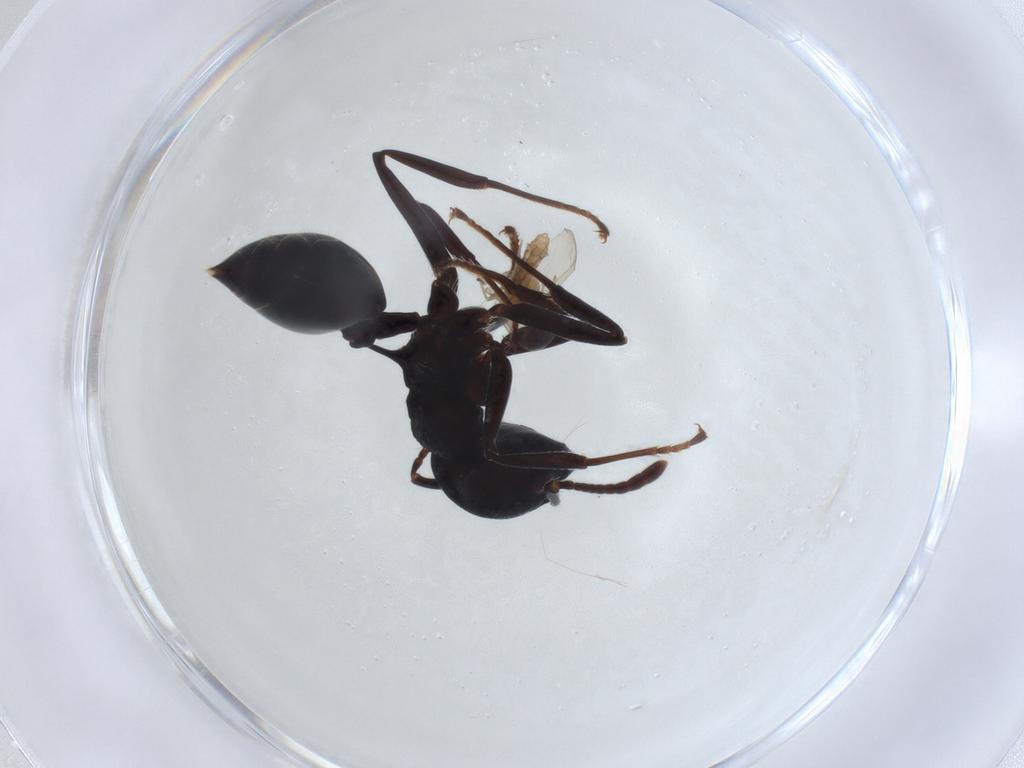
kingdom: Animalia
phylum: Arthropoda
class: Insecta
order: Hymenoptera
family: Formicidae
